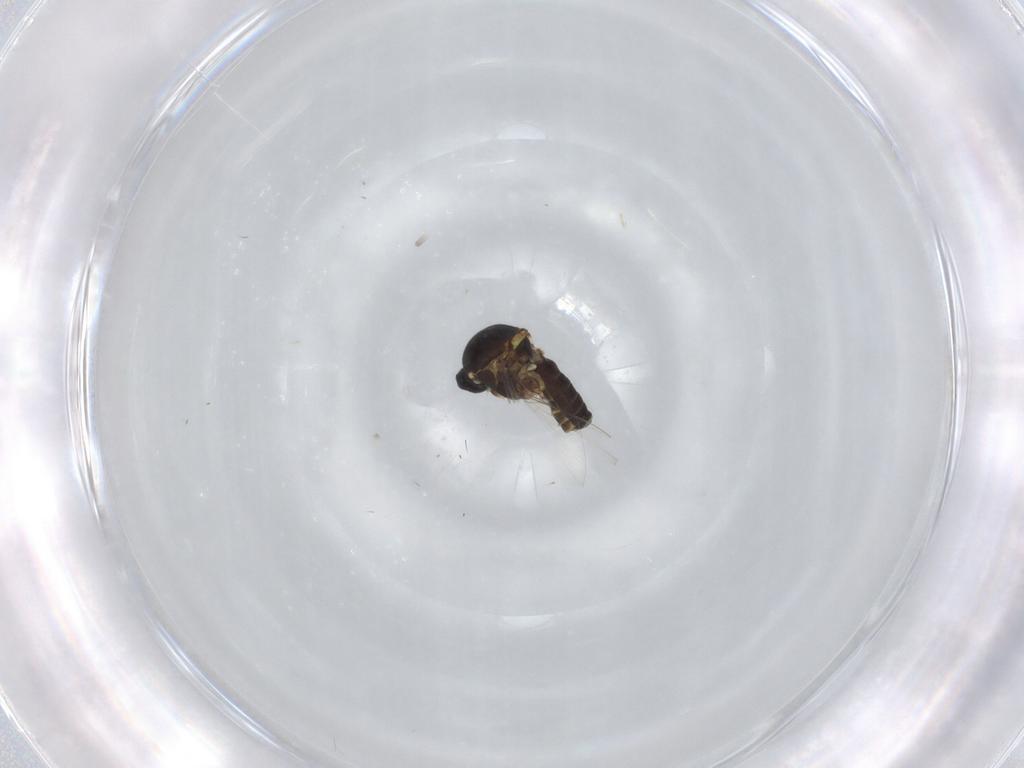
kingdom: Animalia
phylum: Arthropoda
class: Insecta
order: Diptera
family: Ceratopogonidae
